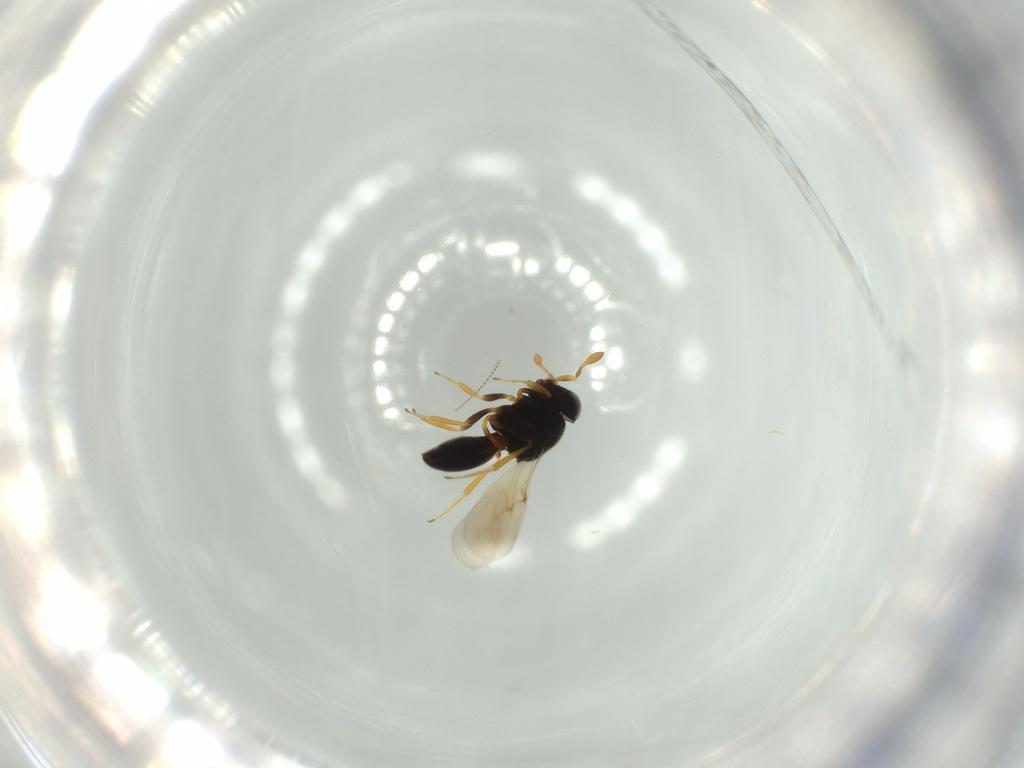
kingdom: Animalia
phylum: Arthropoda
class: Insecta
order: Hymenoptera
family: Scelionidae
